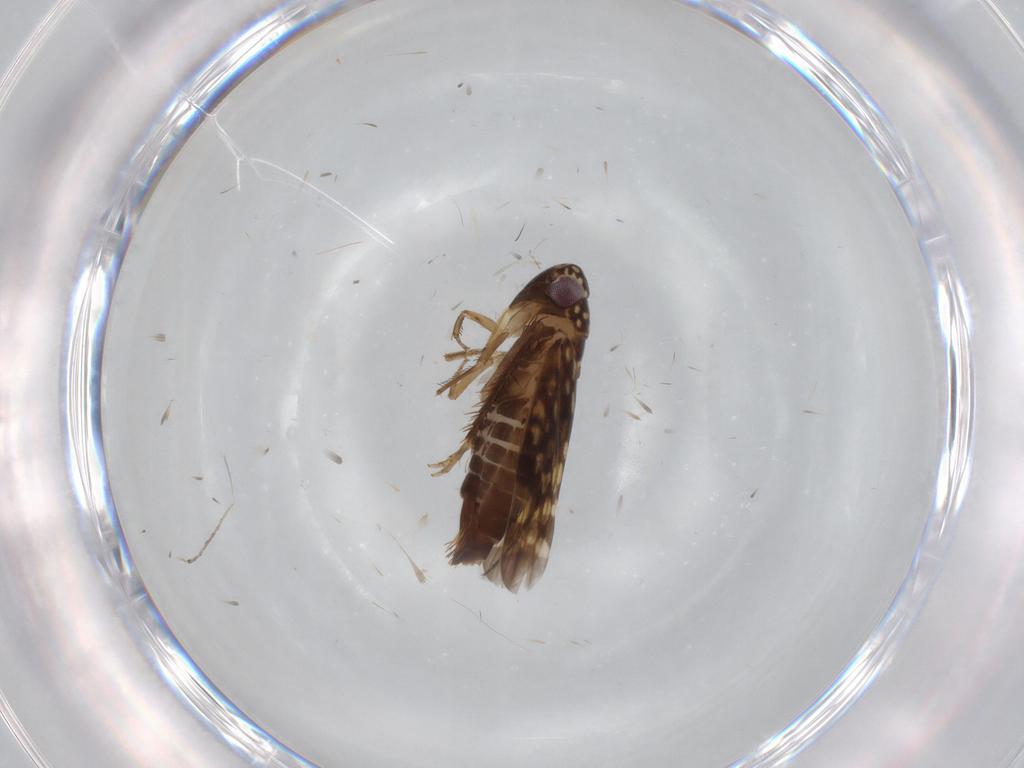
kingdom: Animalia
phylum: Arthropoda
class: Insecta
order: Hemiptera
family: Cicadellidae
